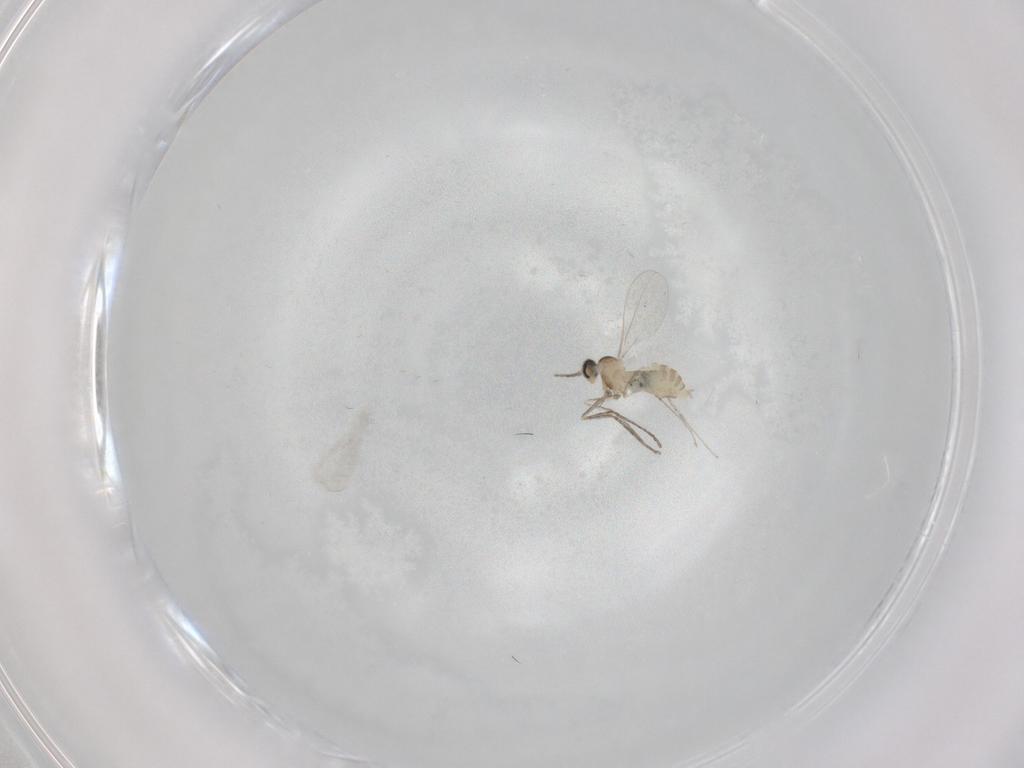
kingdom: Animalia
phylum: Arthropoda
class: Insecta
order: Diptera
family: Cecidomyiidae
